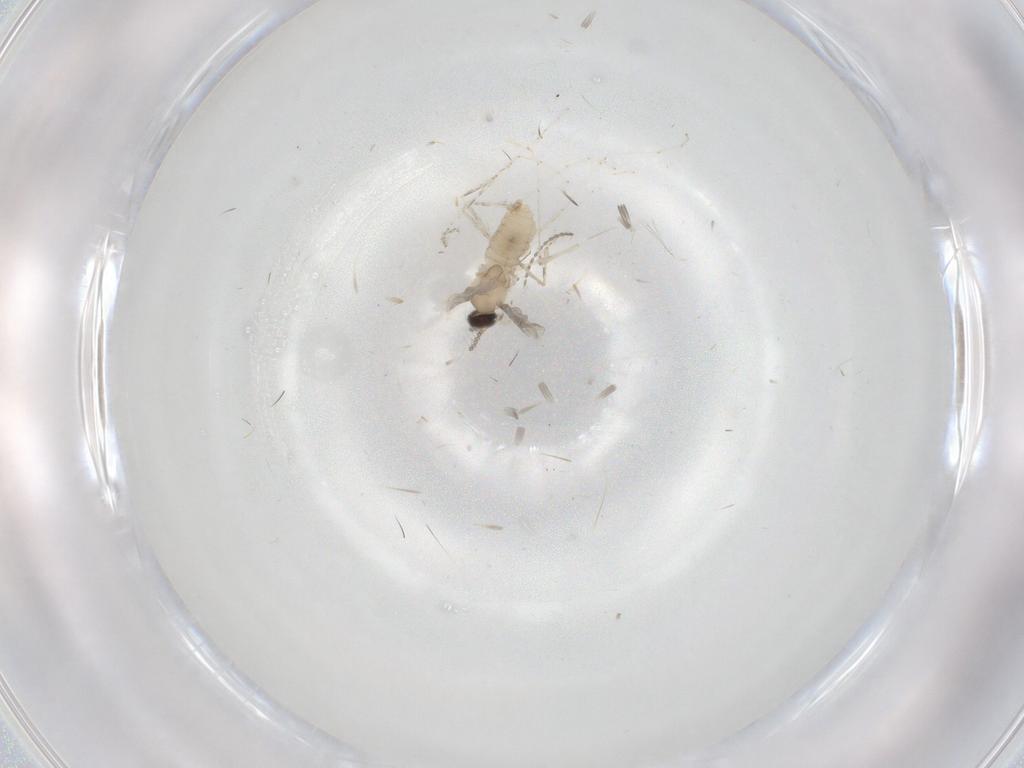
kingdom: Animalia
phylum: Arthropoda
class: Insecta
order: Diptera
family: Cecidomyiidae
